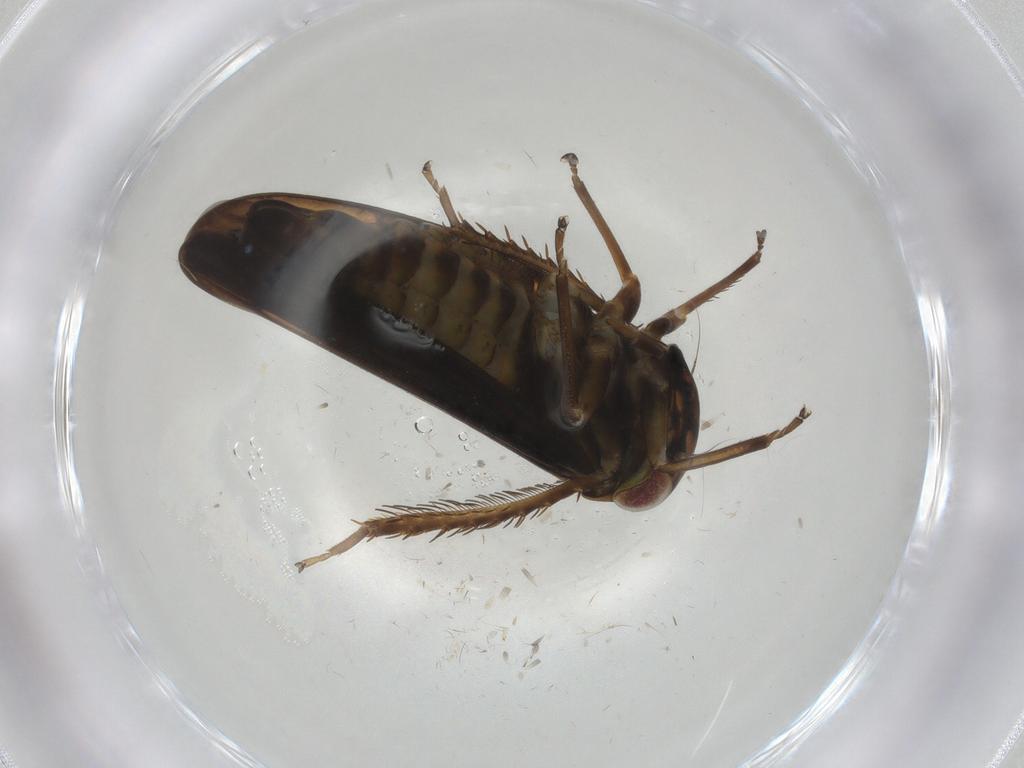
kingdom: Animalia
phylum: Arthropoda
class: Insecta
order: Hemiptera
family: Cicadellidae
